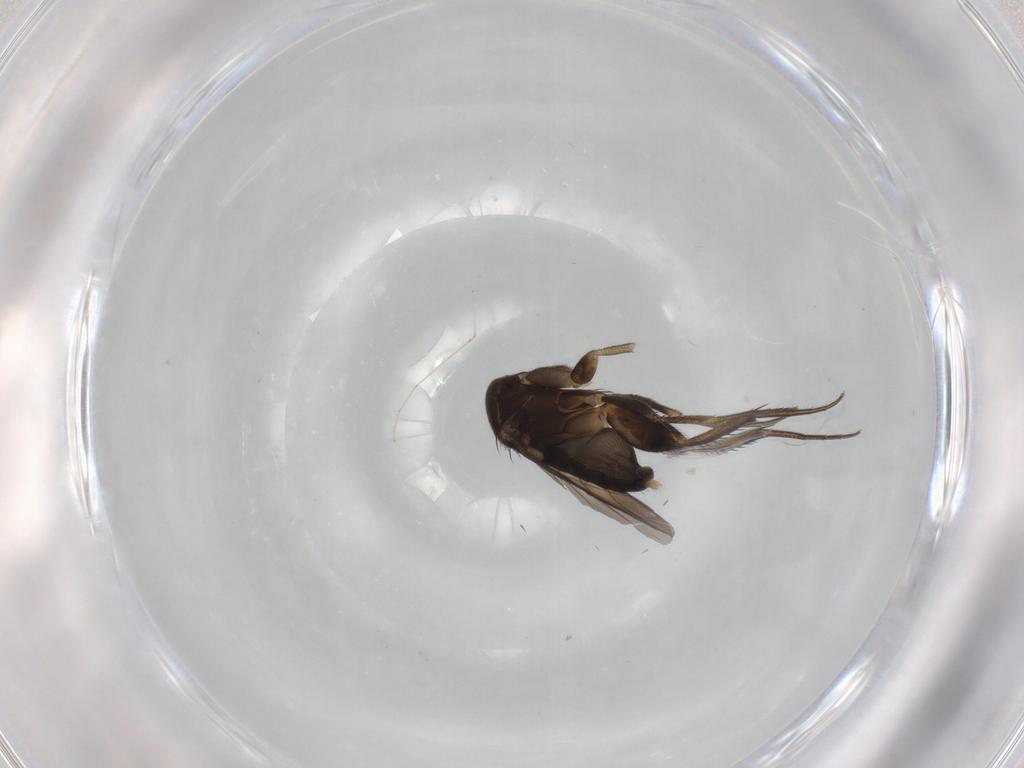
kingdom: Animalia
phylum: Arthropoda
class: Insecta
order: Diptera
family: Phoridae
